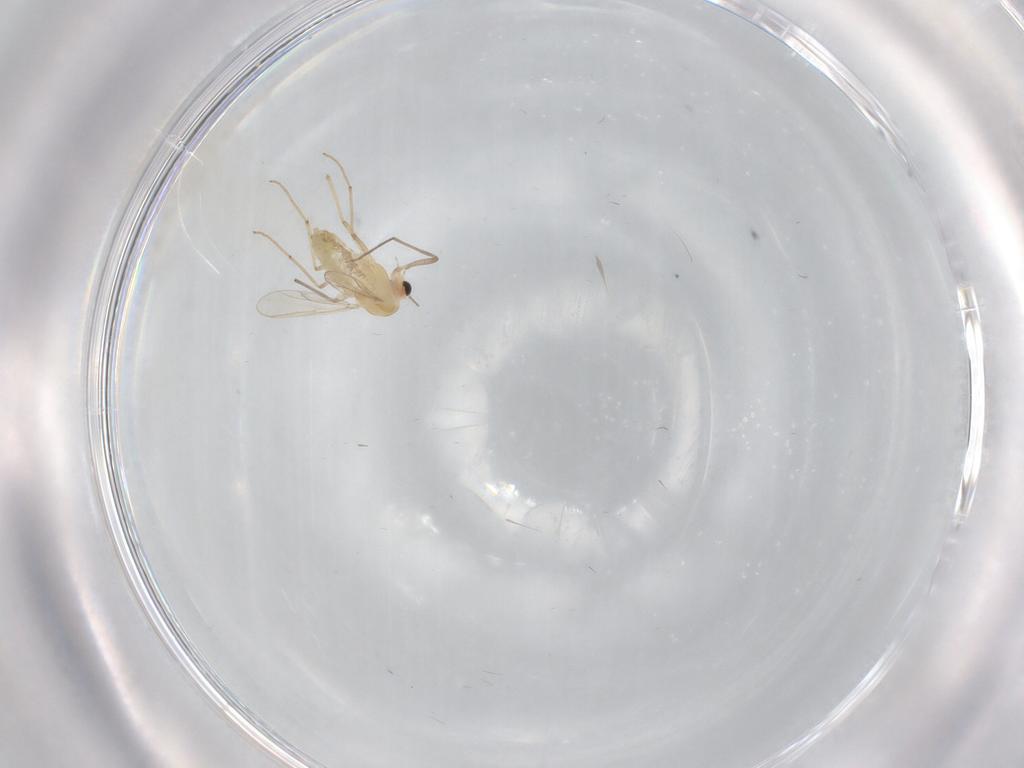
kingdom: Animalia
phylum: Arthropoda
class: Insecta
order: Diptera
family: Chironomidae
